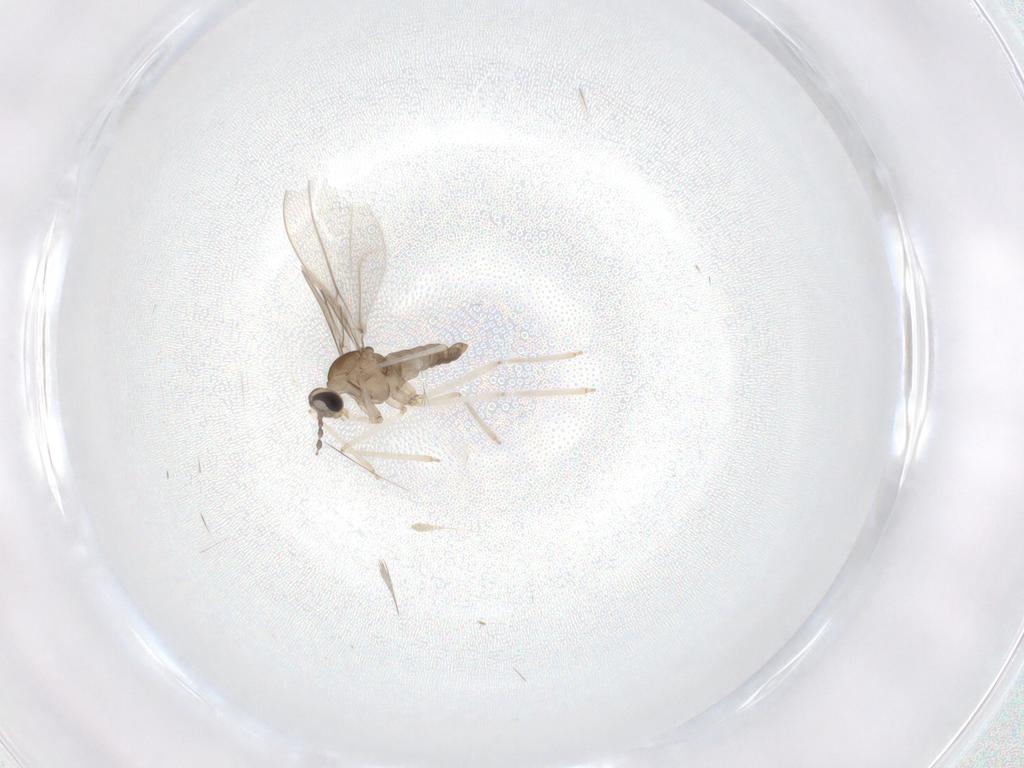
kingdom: Animalia
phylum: Arthropoda
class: Insecta
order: Diptera
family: Cecidomyiidae
